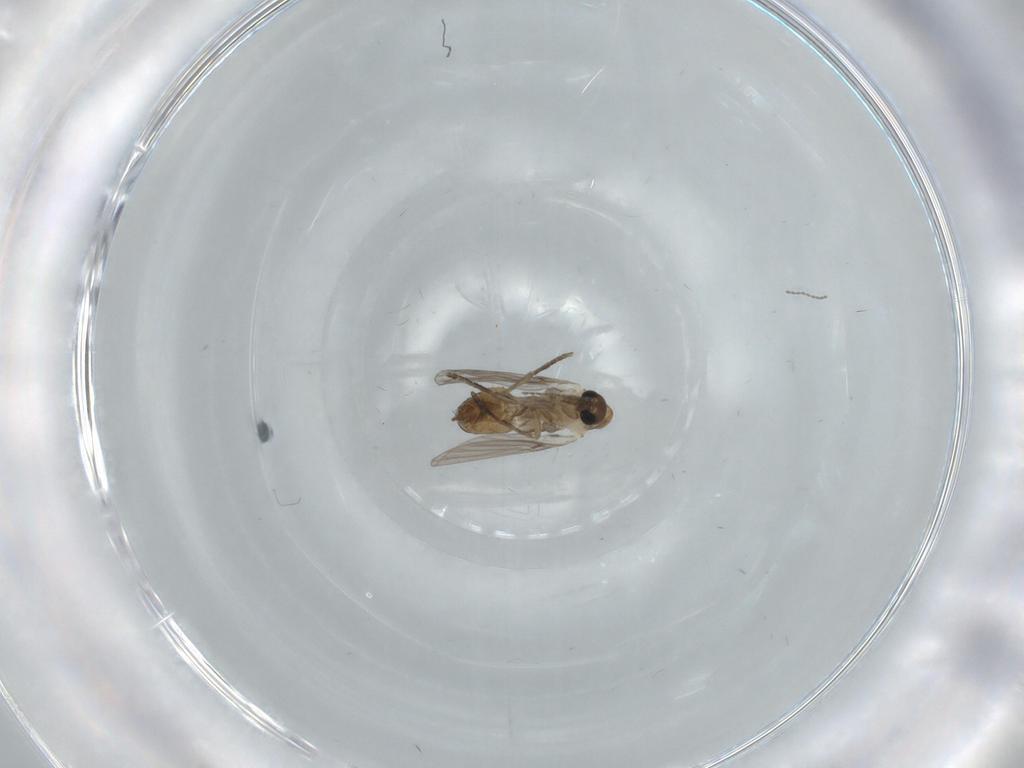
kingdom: Animalia
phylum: Arthropoda
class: Insecta
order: Diptera
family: Psychodidae
